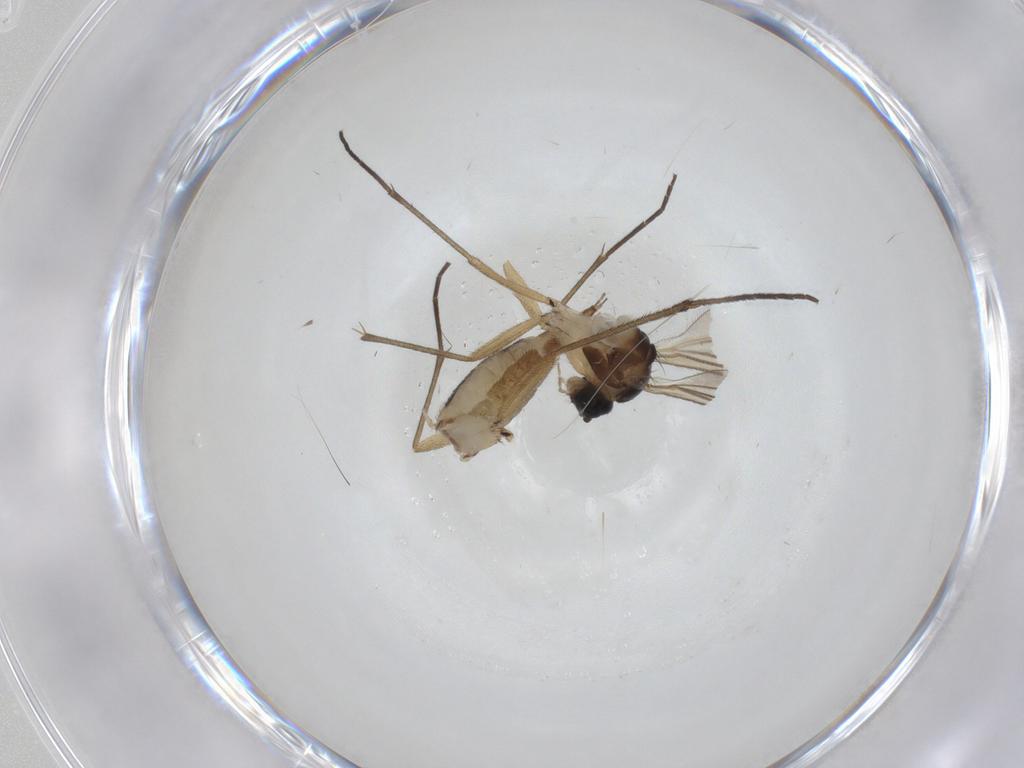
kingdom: Animalia
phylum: Arthropoda
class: Insecta
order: Diptera
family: Sciaridae
